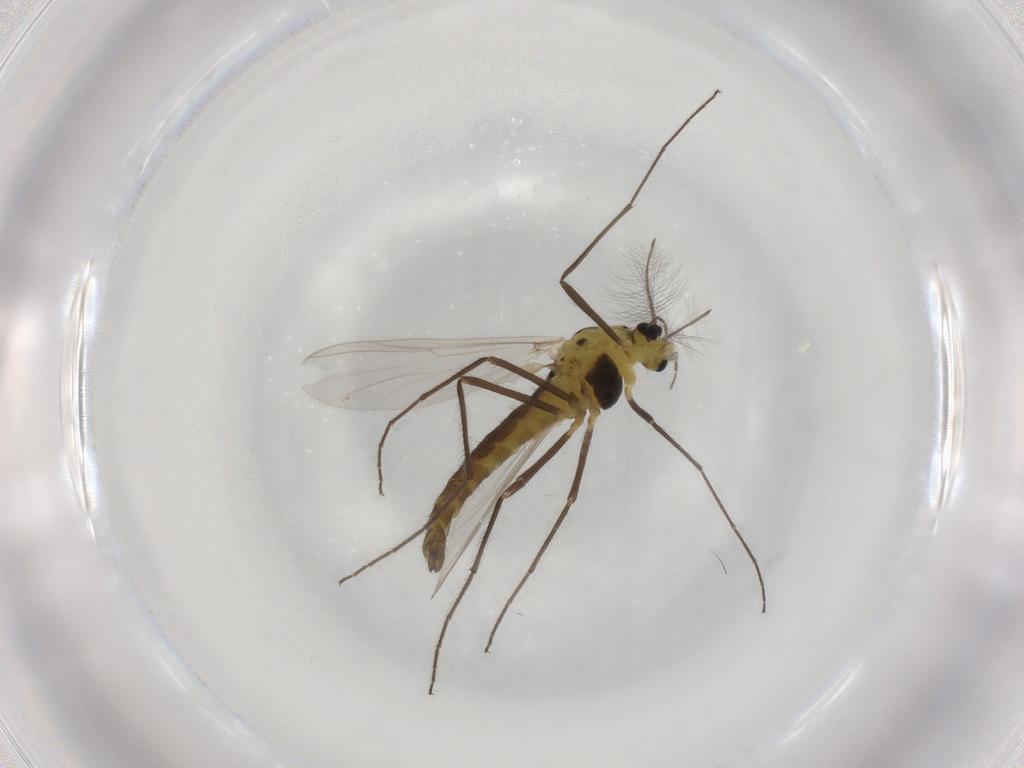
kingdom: Animalia
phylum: Arthropoda
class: Insecta
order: Diptera
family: Chironomidae
